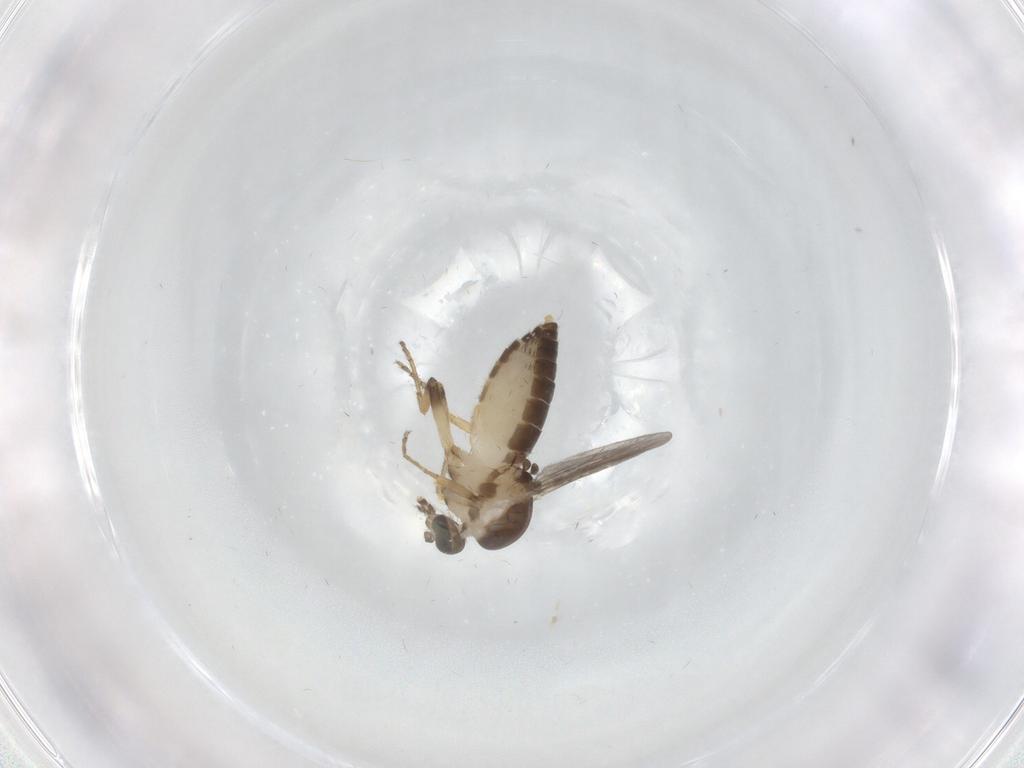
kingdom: Animalia
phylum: Arthropoda
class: Insecta
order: Diptera
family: Ceratopogonidae
